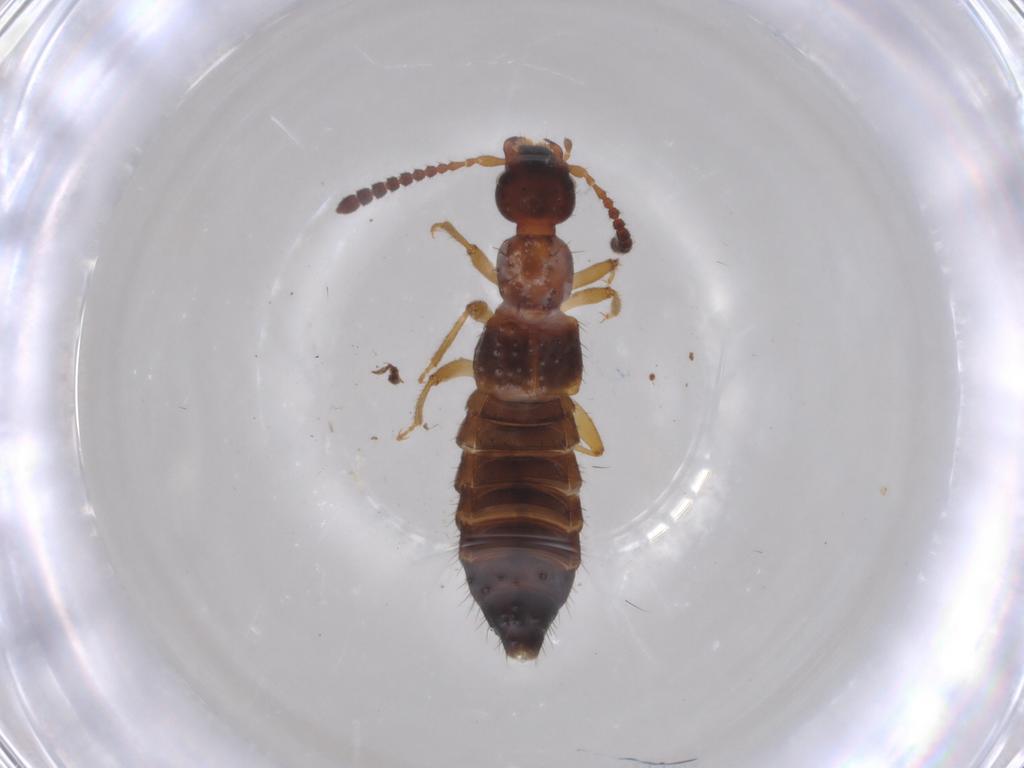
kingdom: Animalia
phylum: Arthropoda
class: Insecta
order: Coleoptera
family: Staphylinidae
